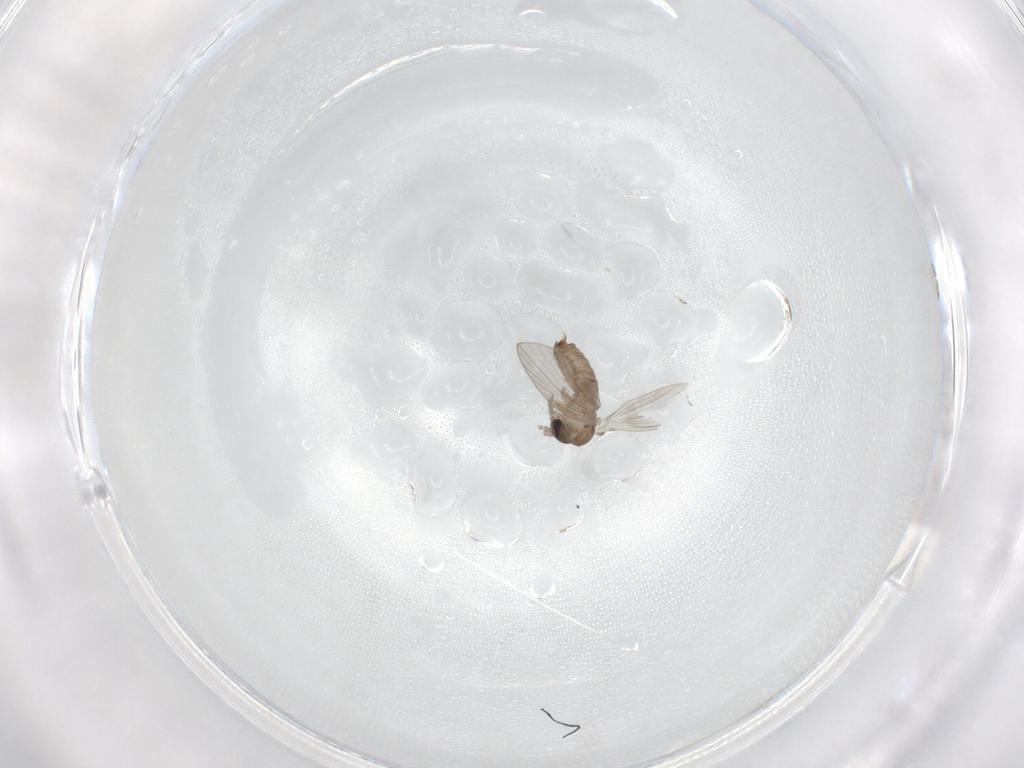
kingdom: Animalia
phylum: Arthropoda
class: Insecta
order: Diptera
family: Psychodidae
